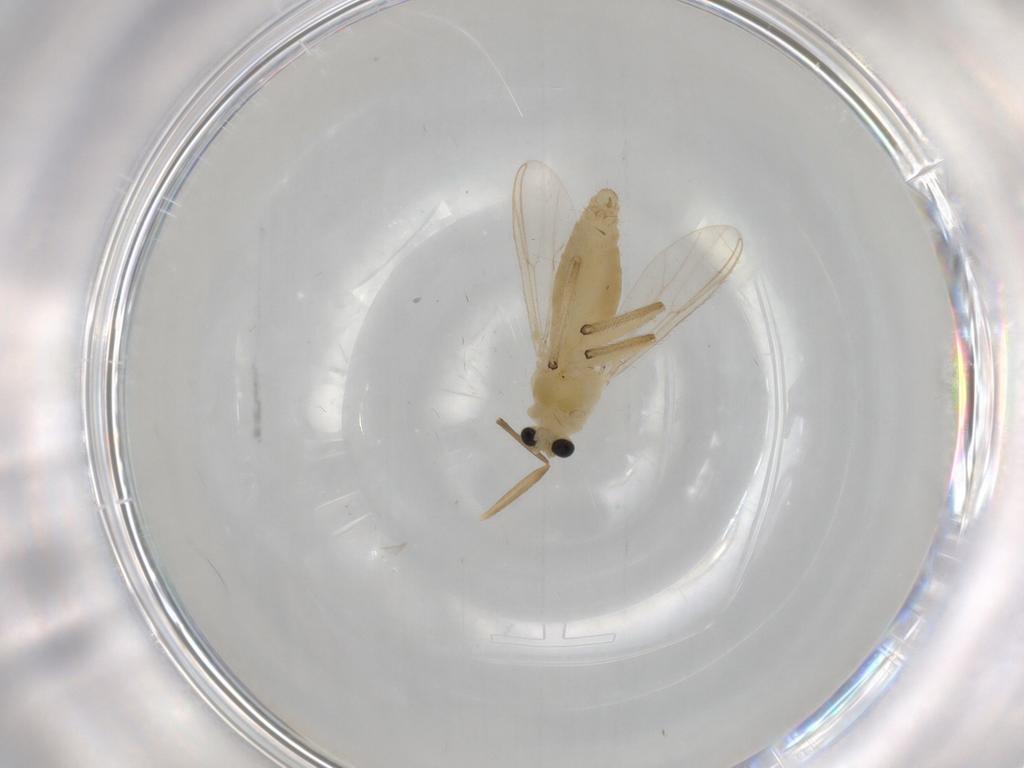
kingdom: Animalia
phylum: Arthropoda
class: Insecta
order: Diptera
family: Chironomidae
